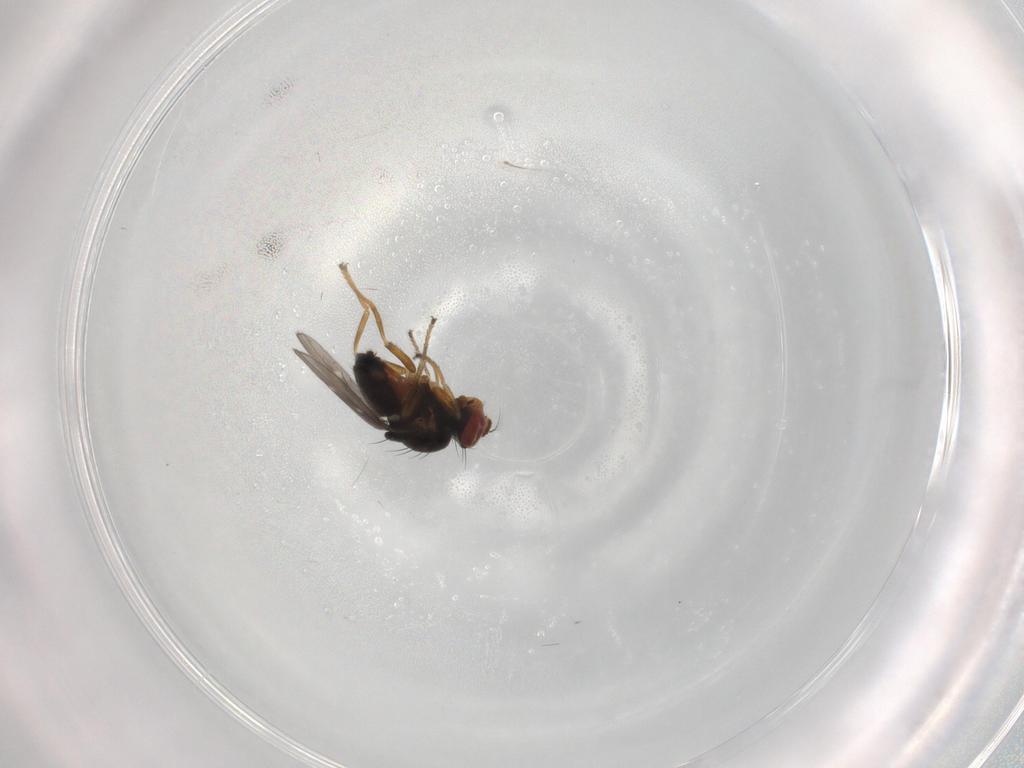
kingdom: Animalia
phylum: Arthropoda
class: Insecta
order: Diptera
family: Ephydridae
